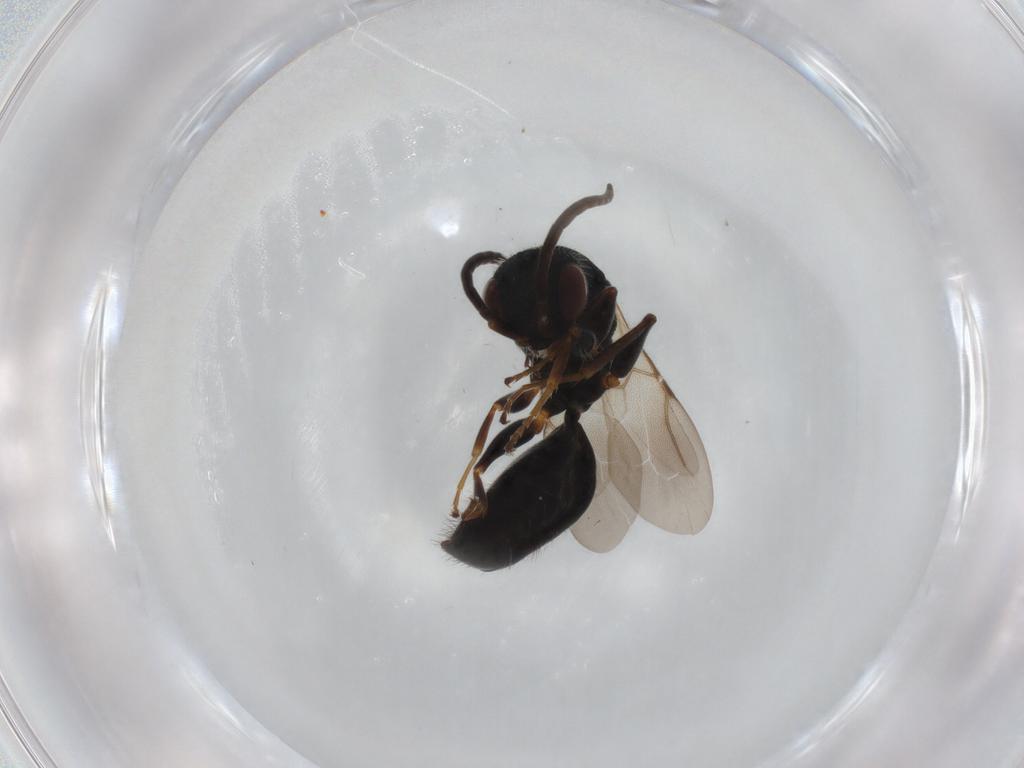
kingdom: Animalia
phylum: Arthropoda
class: Insecta
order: Hymenoptera
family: Bethylidae
